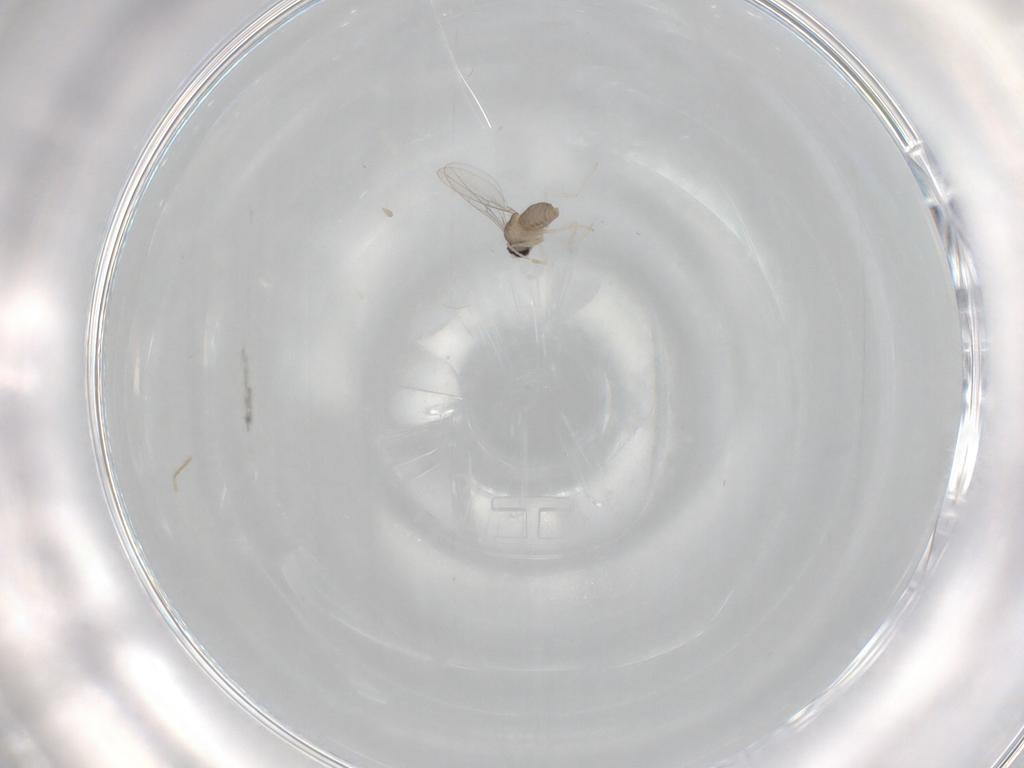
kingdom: Animalia
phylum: Arthropoda
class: Insecta
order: Diptera
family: Cecidomyiidae
